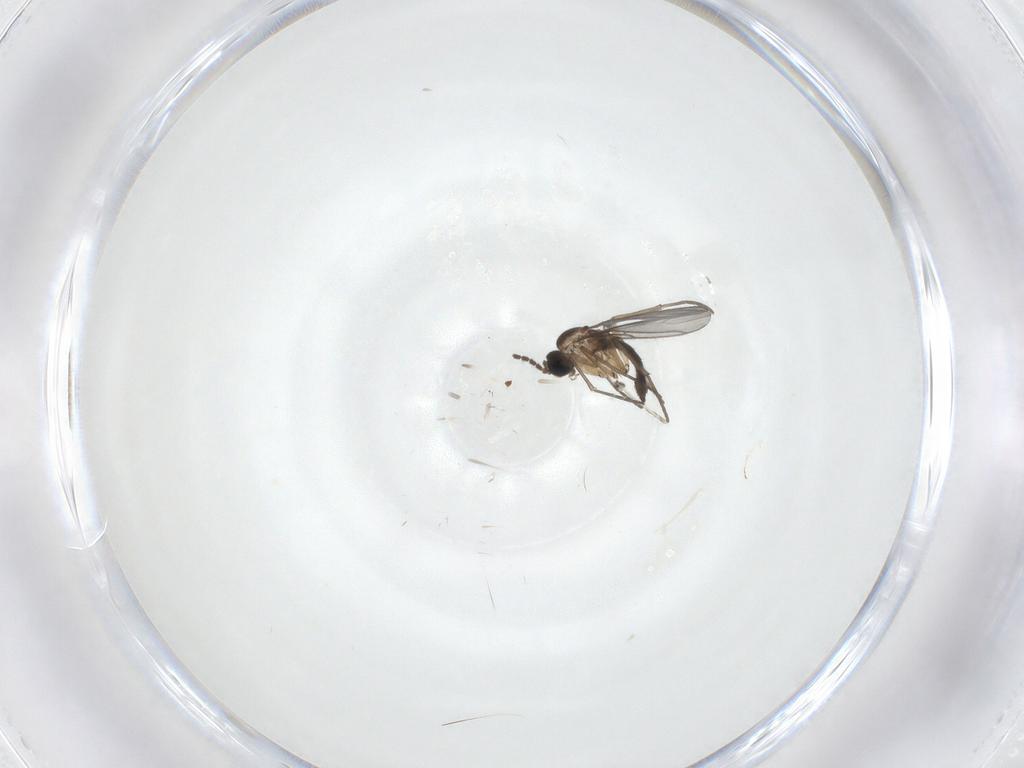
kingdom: Animalia
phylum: Arthropoda
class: Insecta
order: Diptera
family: Sciaridae
